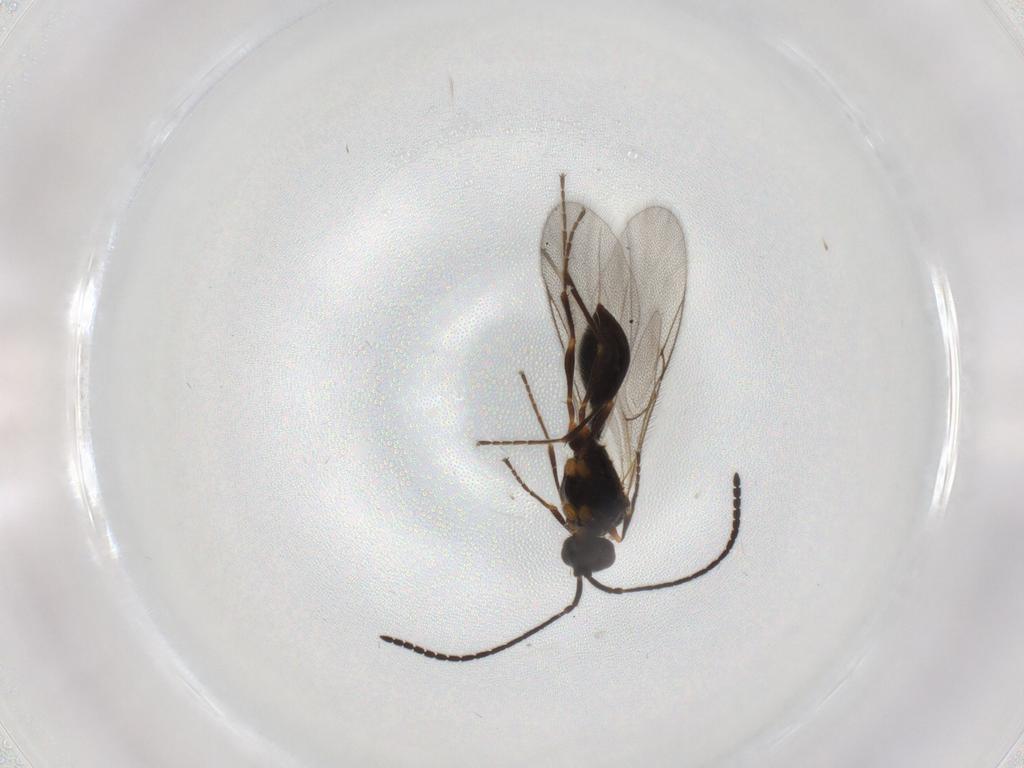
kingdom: Animalia
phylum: Arthropoda
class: Insecta
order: Hymenoptera
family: Diapriidae
